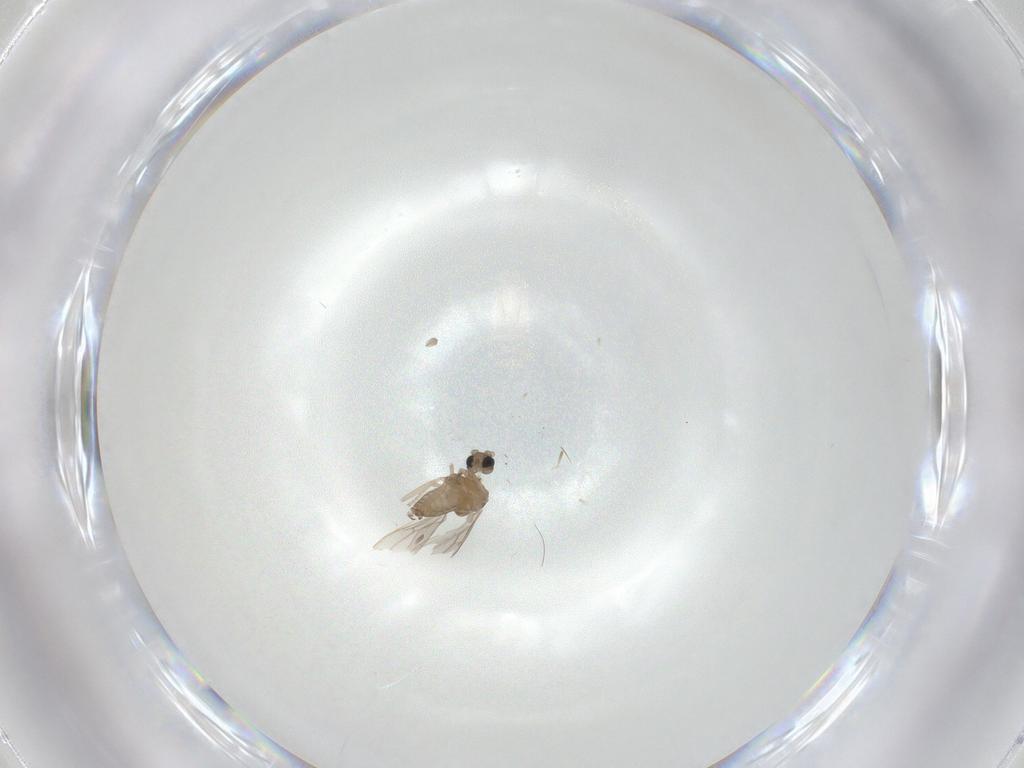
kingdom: Animalia
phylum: Arthropoda
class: Insecta
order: Diptera
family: Cecidomyiidae
